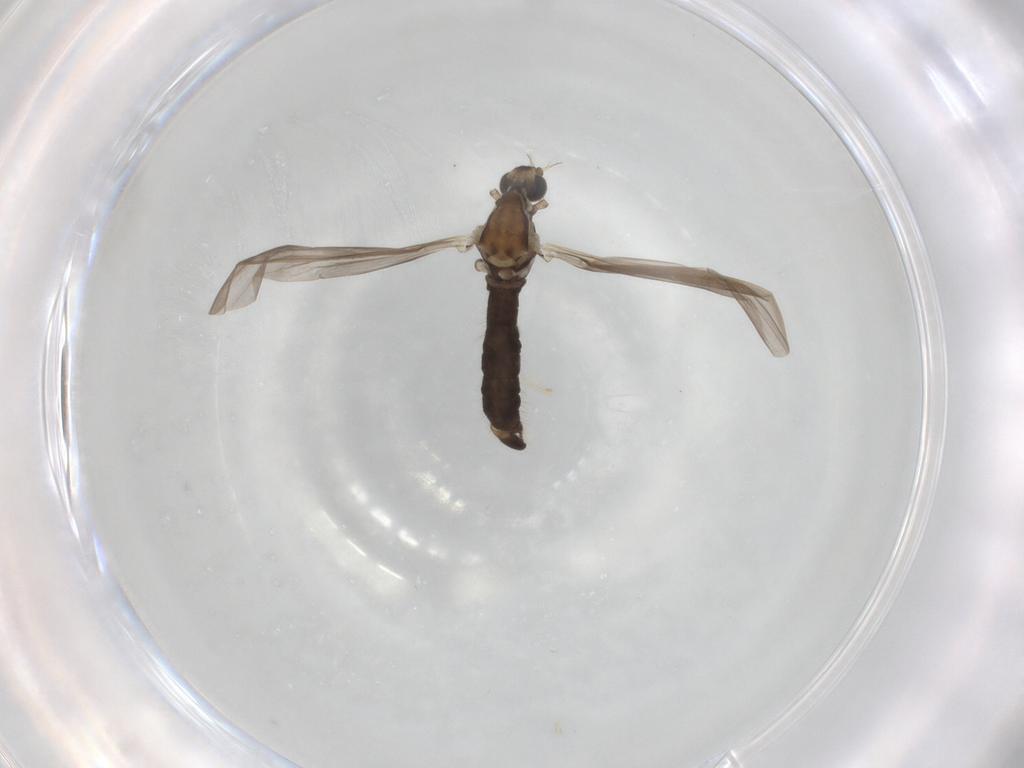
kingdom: Animalia
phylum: Arthropoda
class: Insecta
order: Diptera
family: Limoniidae
